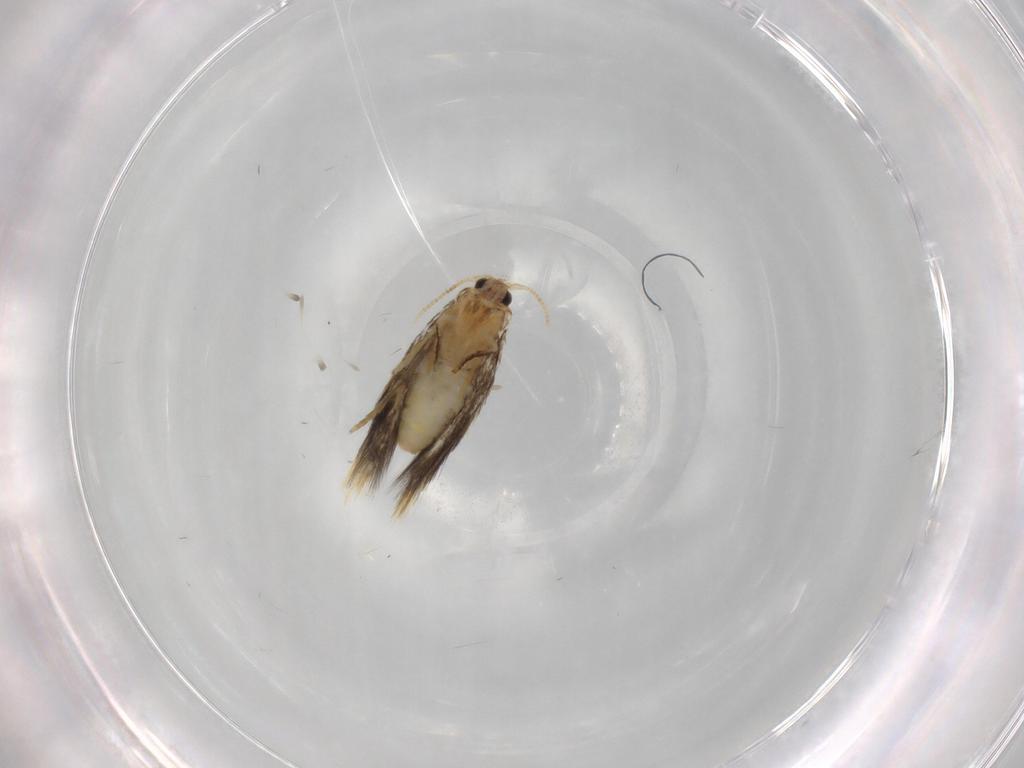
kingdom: Animalia
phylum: Arthropoda
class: Insecta
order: Lepidoptera
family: Copromorphidae
